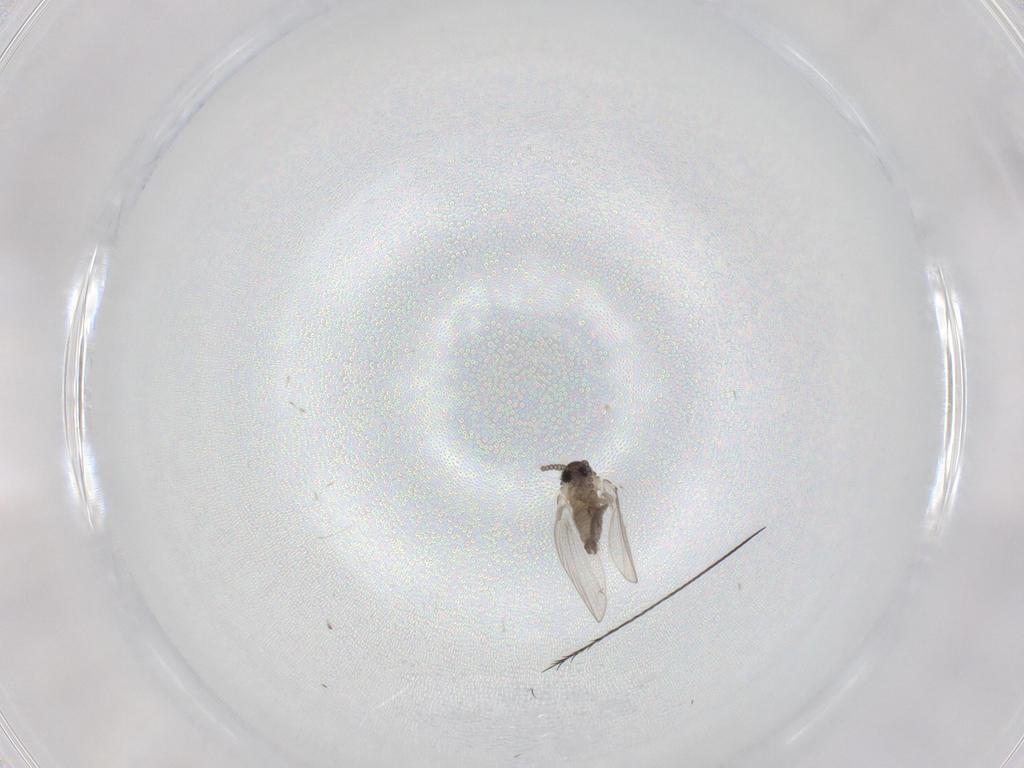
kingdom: Animalia
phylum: Arthropoda
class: Insecta
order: Diptera
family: Psychodidae
